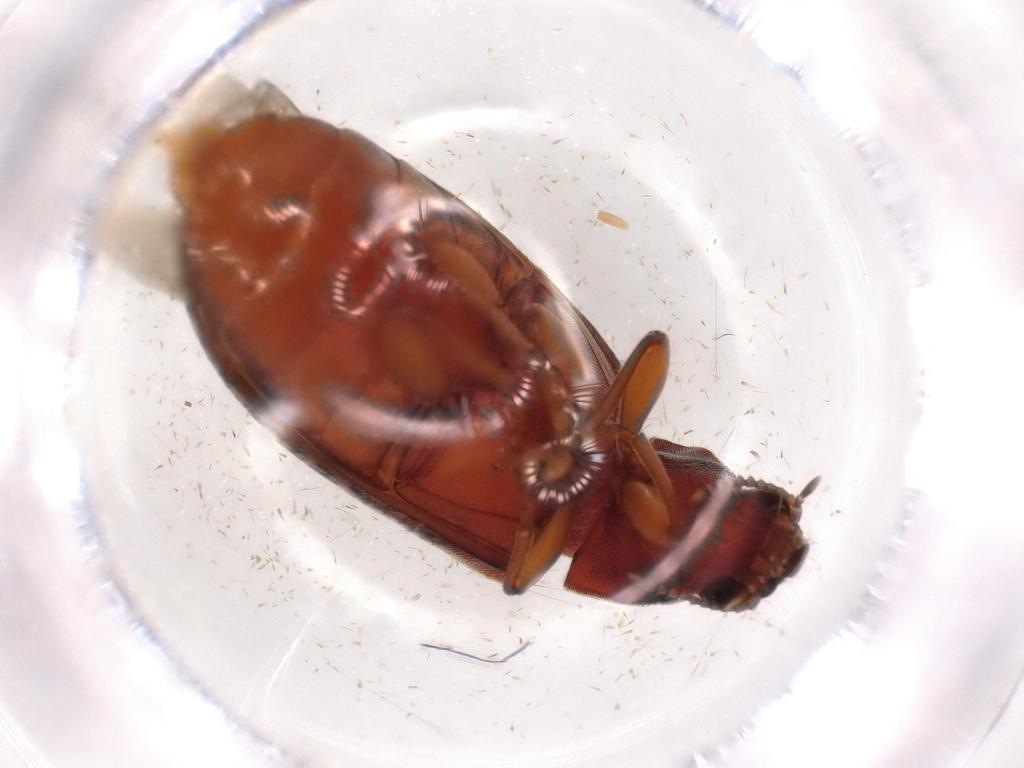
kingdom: Animalia
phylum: Arthropoda
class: Insecta
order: Coleoptera
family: Mycteridae
